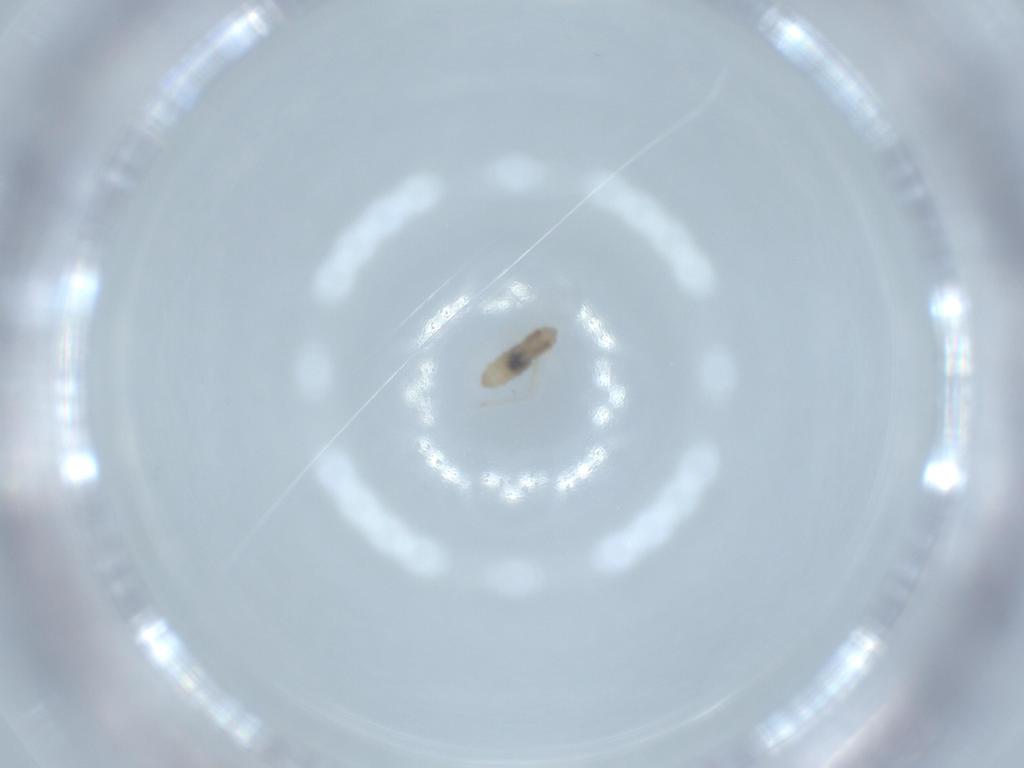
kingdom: Animalia
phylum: Arthropoda
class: Insecta
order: Diptera
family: Cecidomyiidae
